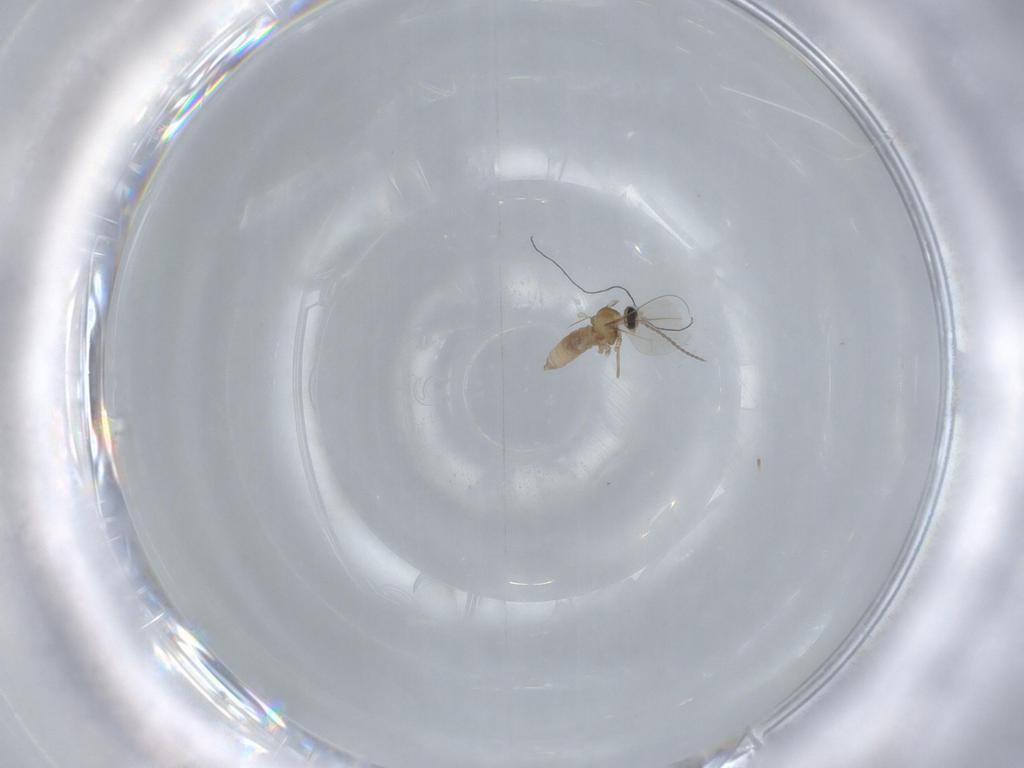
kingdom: Animalia
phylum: Arthropoda
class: Insecta
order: Diptera
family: Cecidomyiidae
